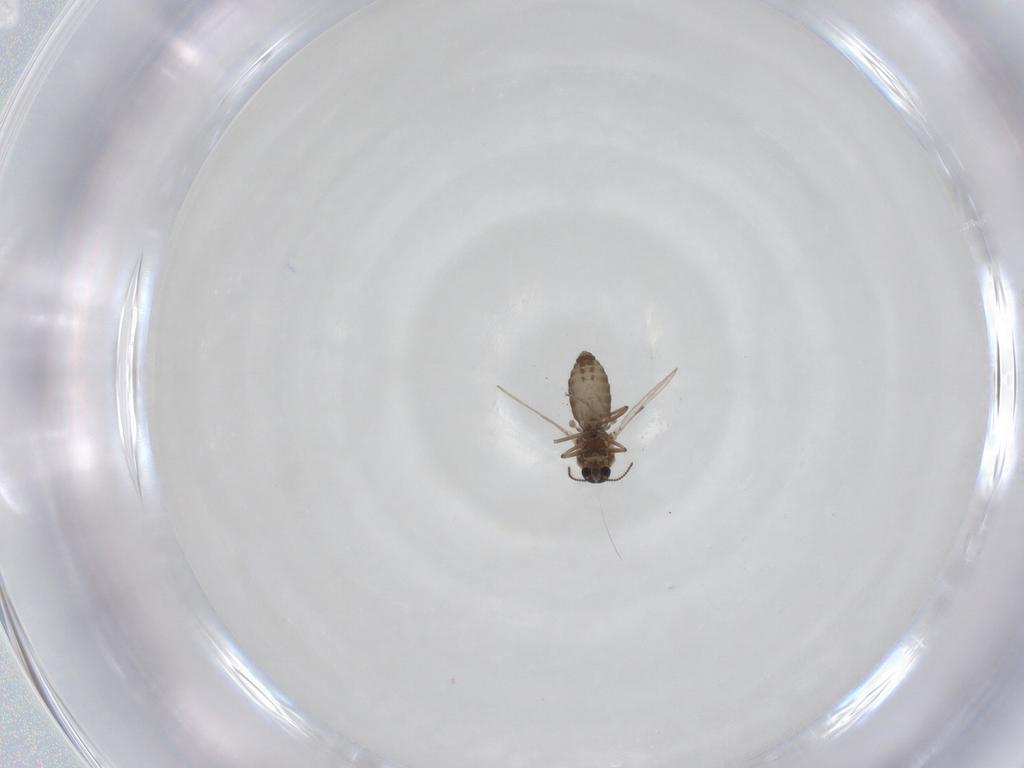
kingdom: Animalia
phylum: Arthropoda
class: Insecta
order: Diptera
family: Ceratopogonidae
